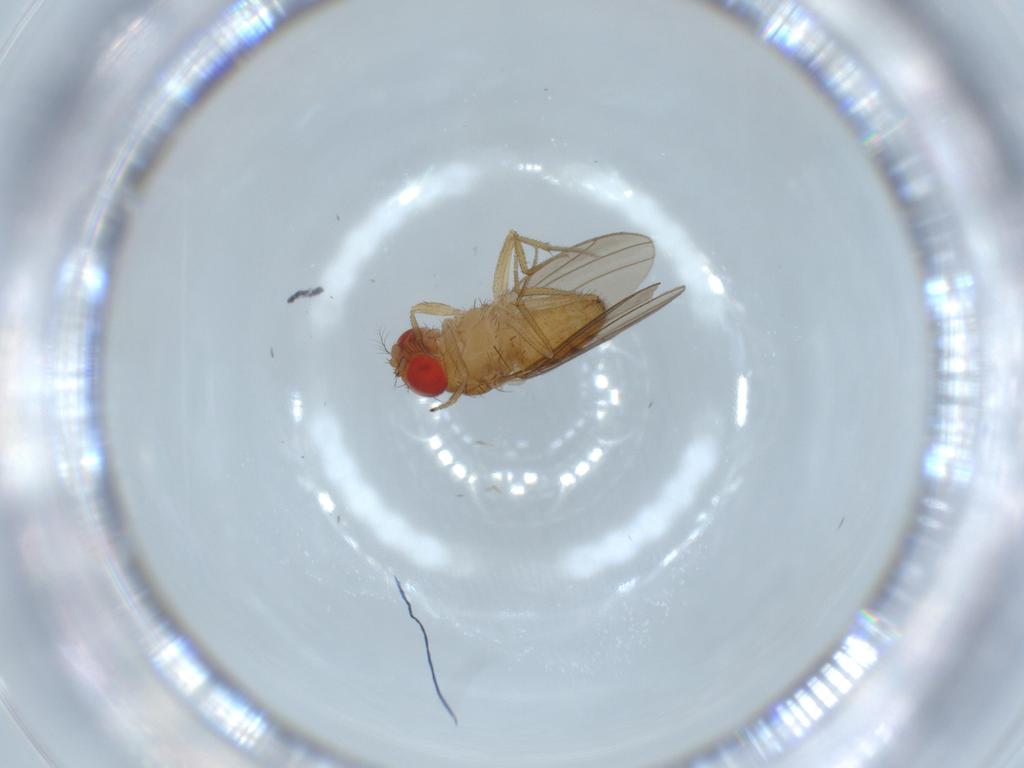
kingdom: Animalia
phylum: Arthropoda
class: Insecta
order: Diptera
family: Drosophilidae
